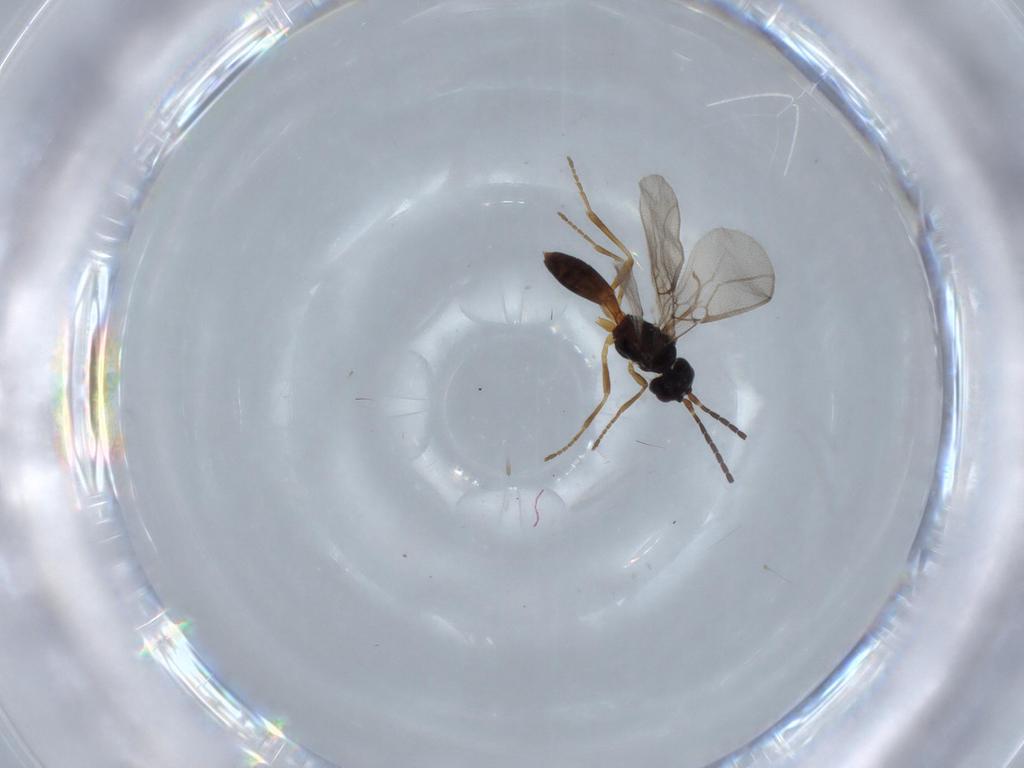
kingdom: Animalia
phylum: Arthropoda
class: Insecta
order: Hymenoptera
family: Braconidae
